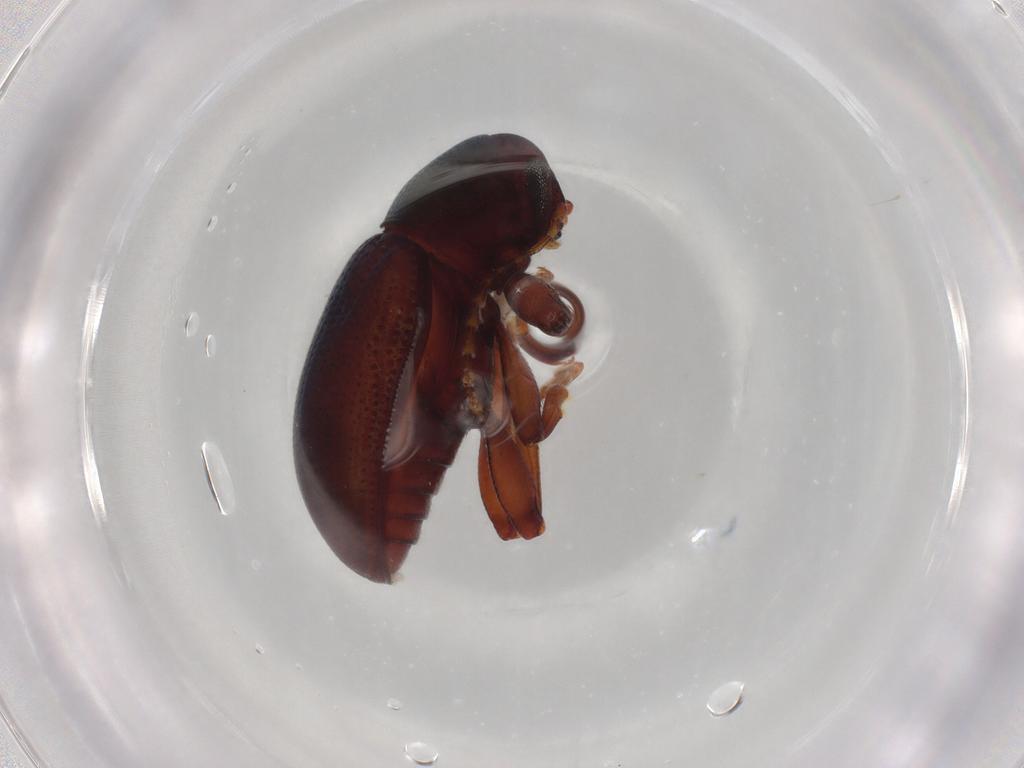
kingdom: Animalia
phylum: Arthropoda
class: Insecta
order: Coleoptera
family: Chrysomelidae
